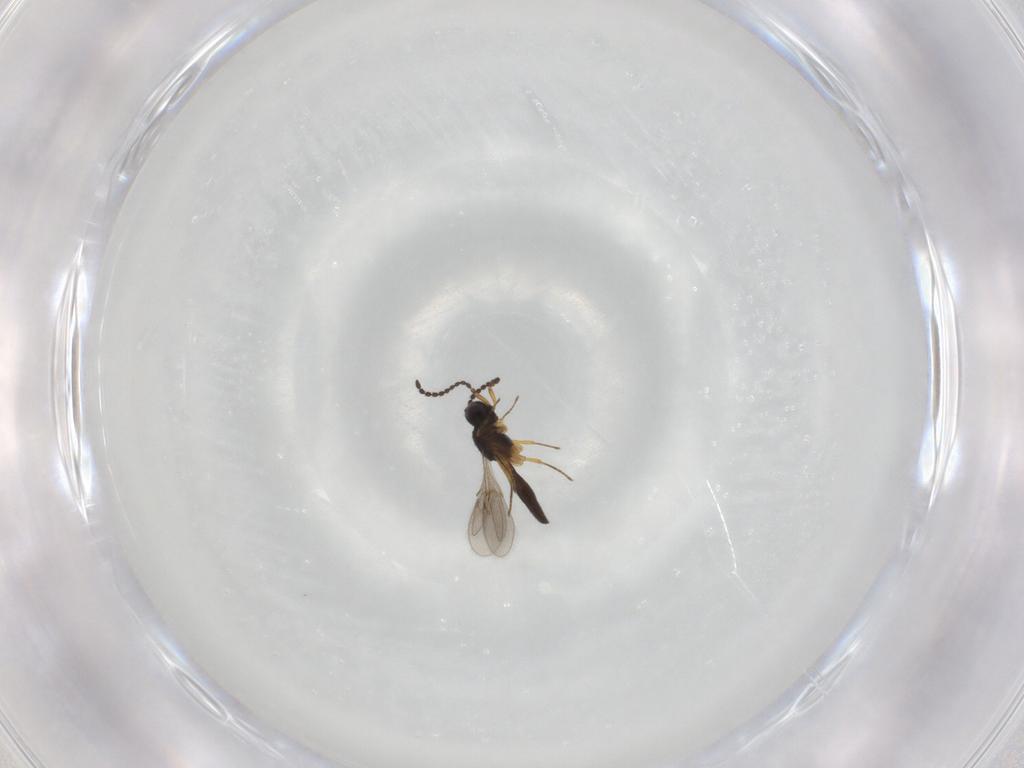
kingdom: Animalia
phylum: Arthropoda
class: Insecta
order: Hymenoptera
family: Scelionidae
